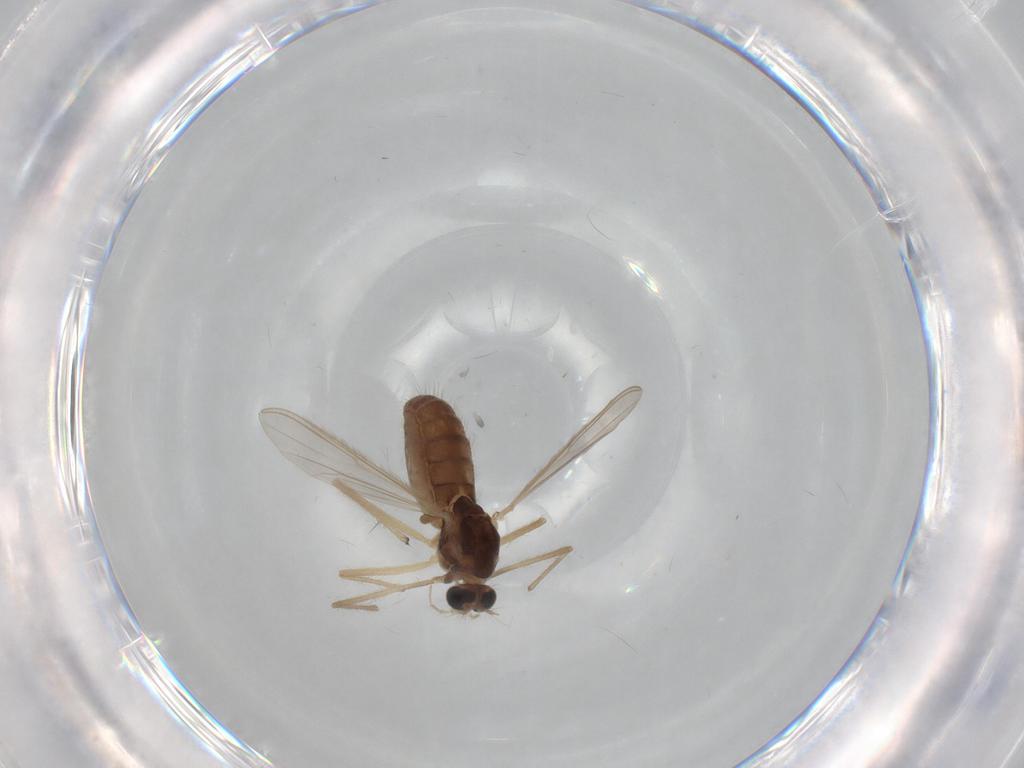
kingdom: Animalia
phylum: Arthropoda
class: Insecta
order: Diptera
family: Phoridae
